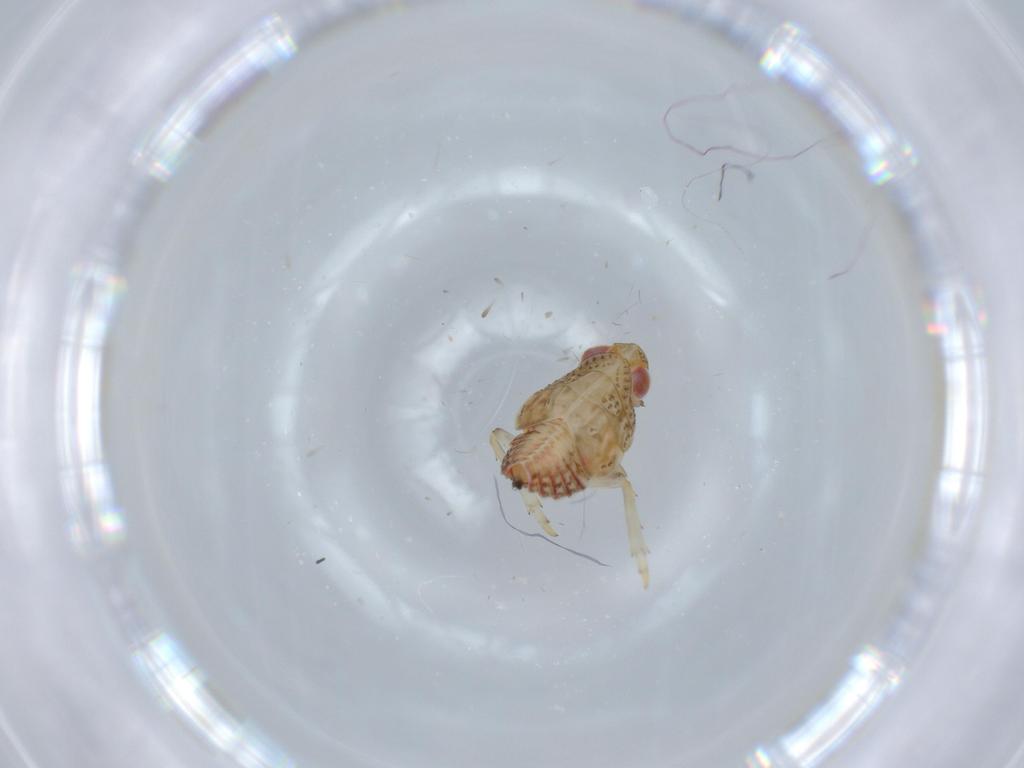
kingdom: Animalia
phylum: Arthropoda
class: Insecta
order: Hemiptera
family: Issidae
